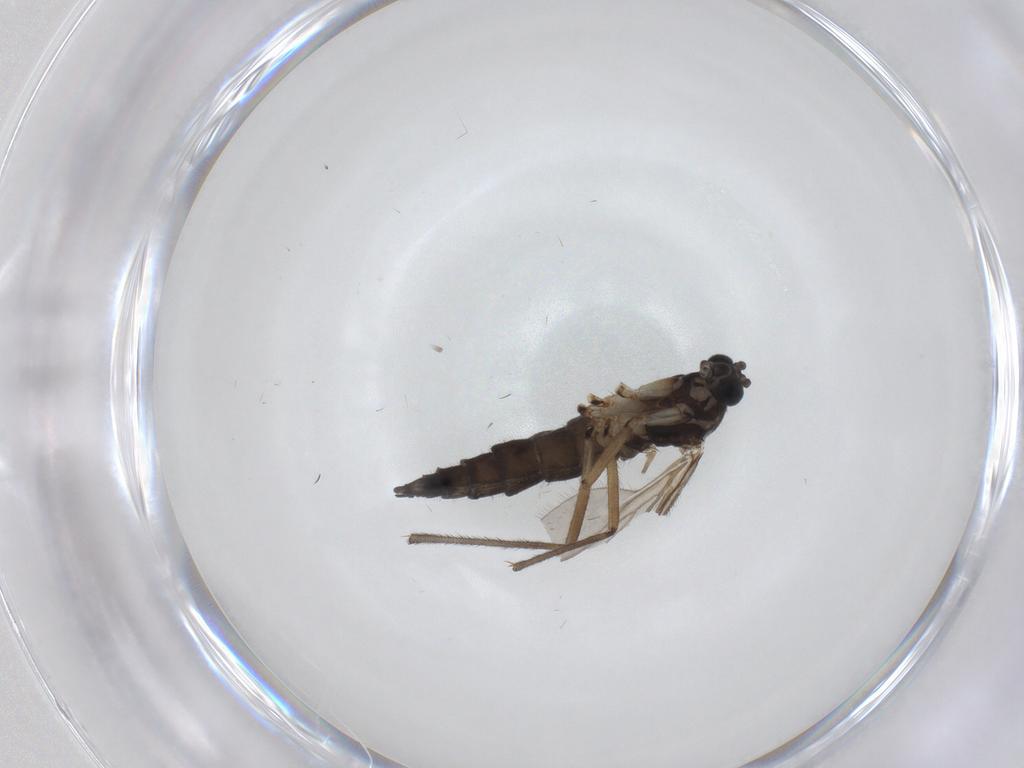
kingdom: Animalia
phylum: Arthropoda
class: Insecta
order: Diptera
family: Sciaridae
